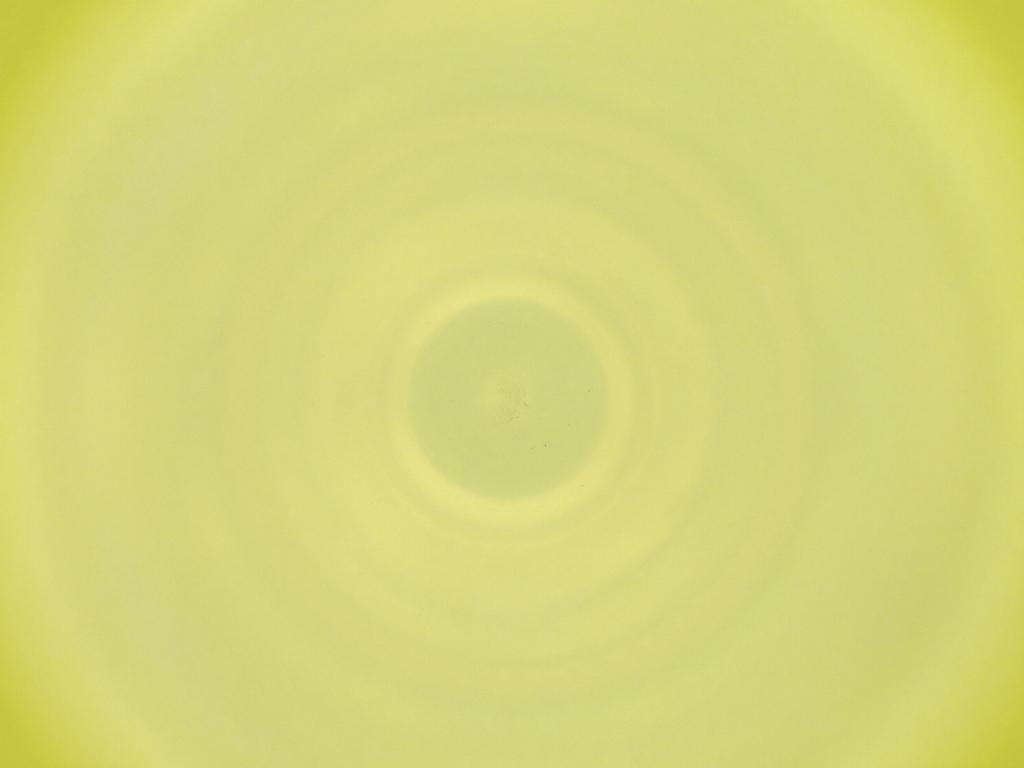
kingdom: Animalia
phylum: Arthropoda
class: Insecta
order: Diptera
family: Cecidomyiidae
